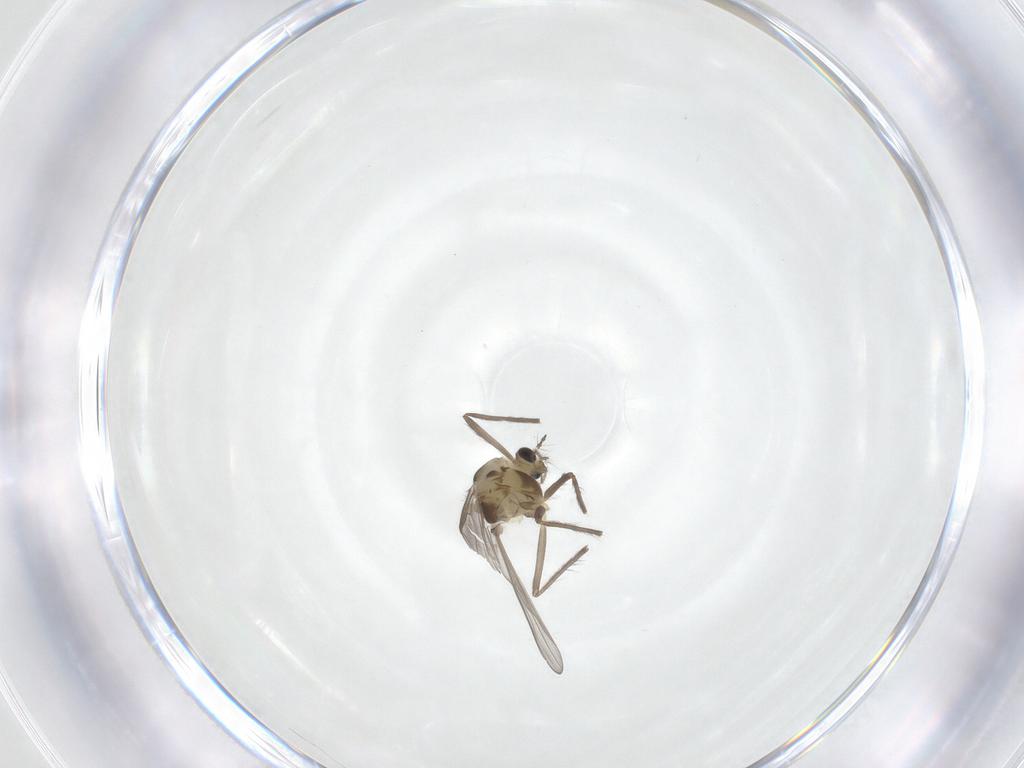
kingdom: Animalia
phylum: Arthropoda
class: Insecta
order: Diptera
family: Chironomidae
